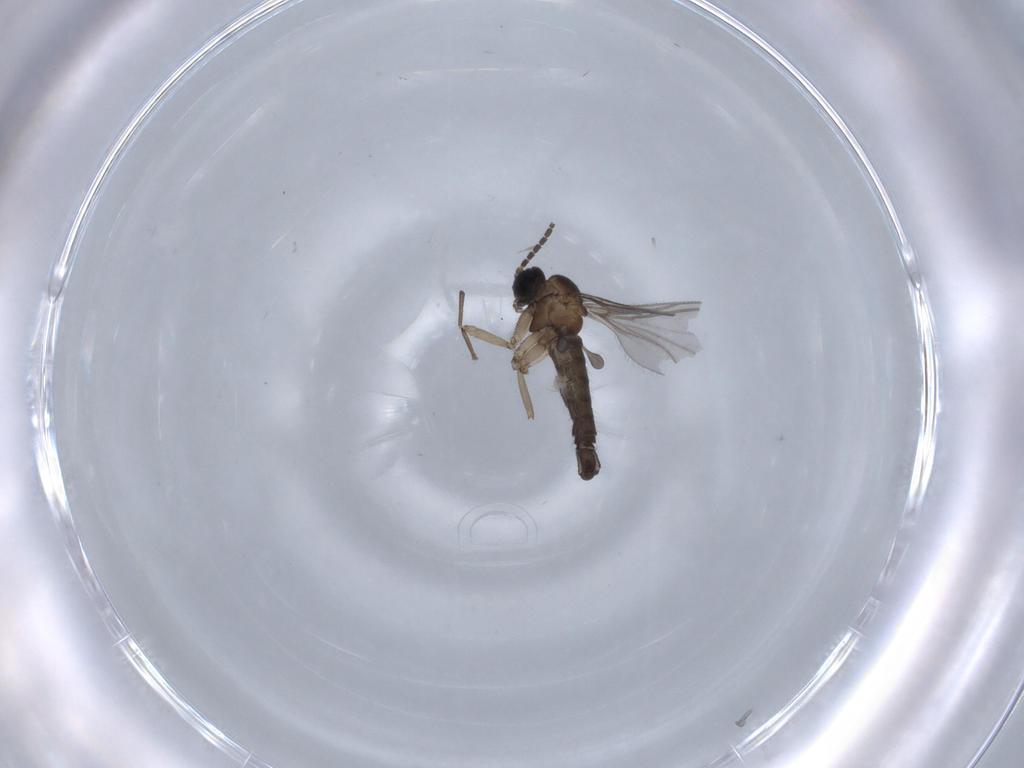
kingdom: Animalia
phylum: Arthropoda
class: Insecta
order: Diptera
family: Sciaridae
